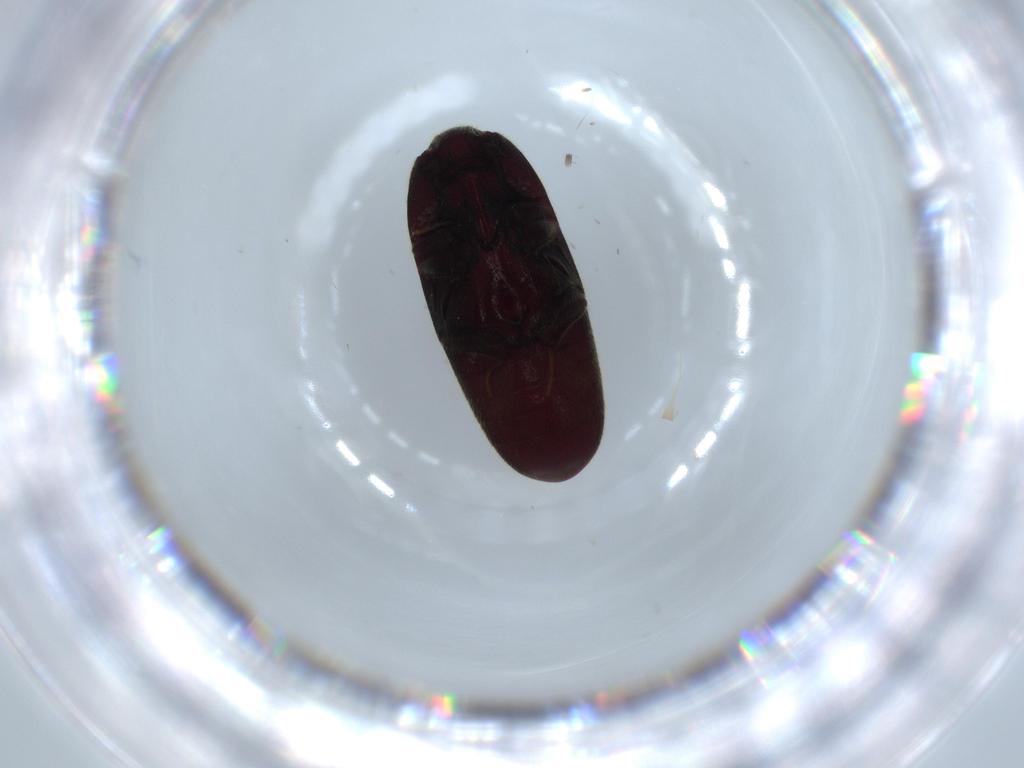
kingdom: Animalia
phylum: Arthropoda
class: Insecta
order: Coleoptera
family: Throscidae
